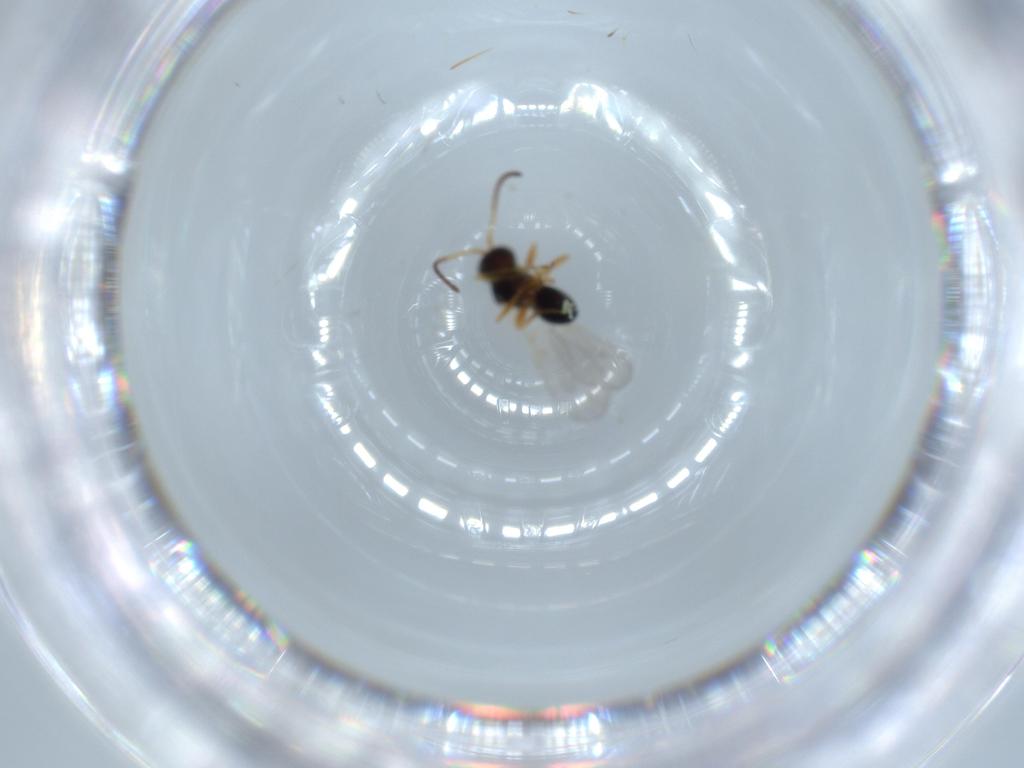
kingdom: Animalia
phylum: Arthropoda
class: Insecta
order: Hymenoptera
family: Figitidae
